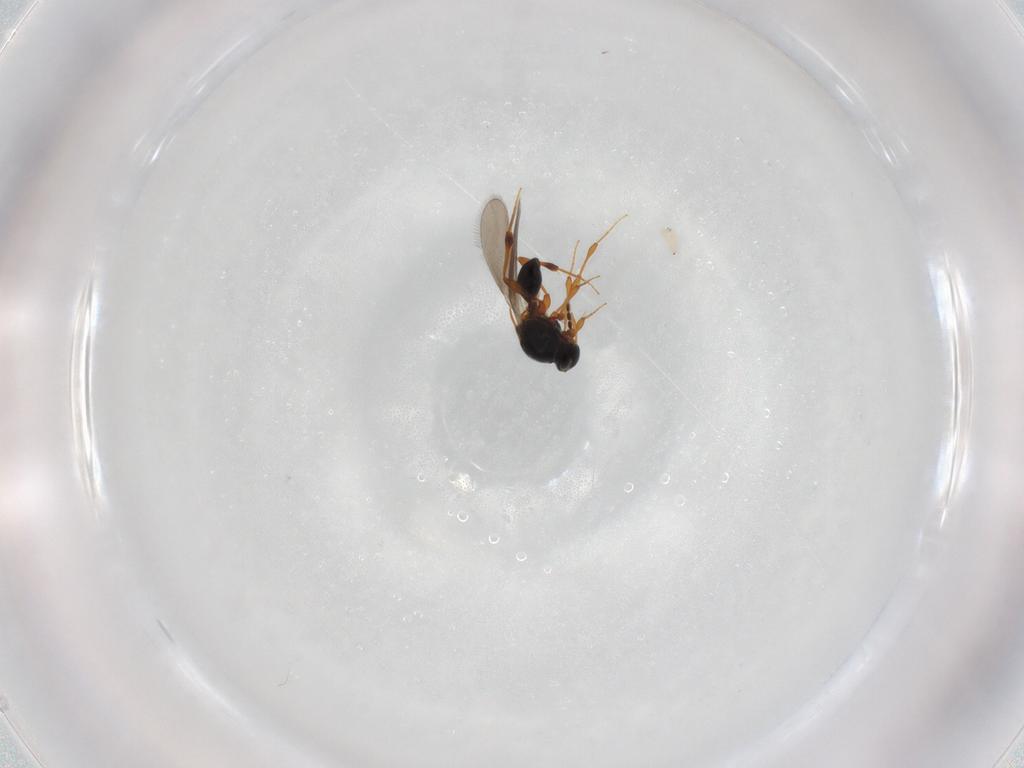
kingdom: Animalia
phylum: Arthropoda
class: Insecta
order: Hymenoptera
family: Platygastridae
